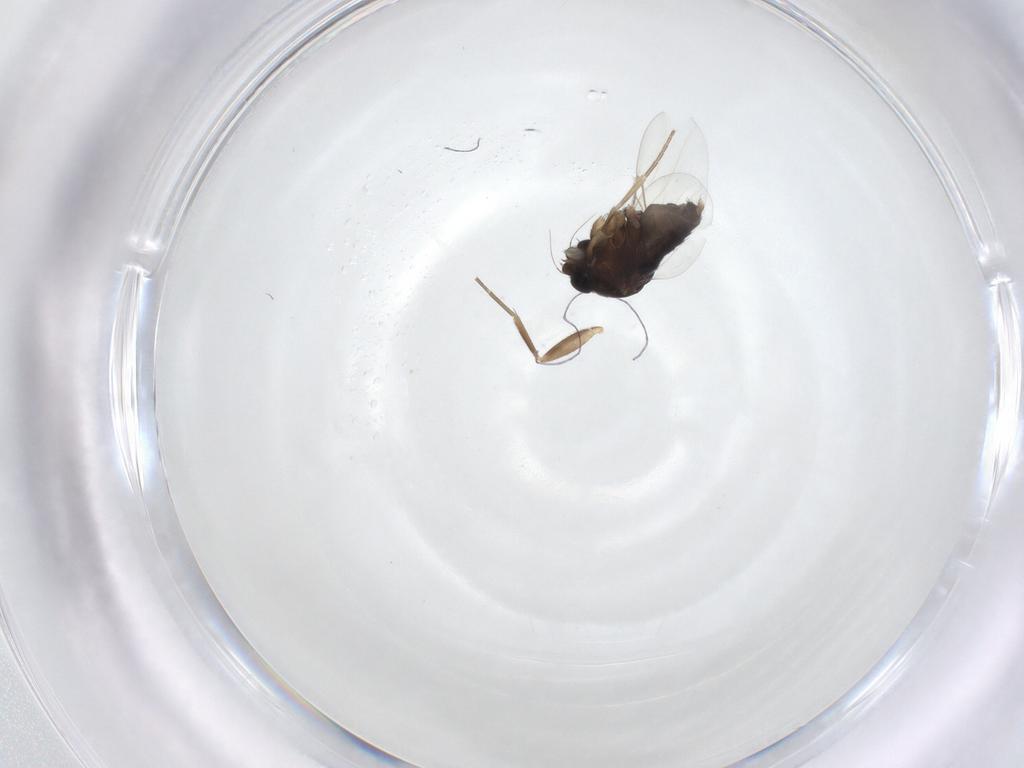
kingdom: Animalia
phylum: Arthropoda
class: Insecta
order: Diptera
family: Phoridae
